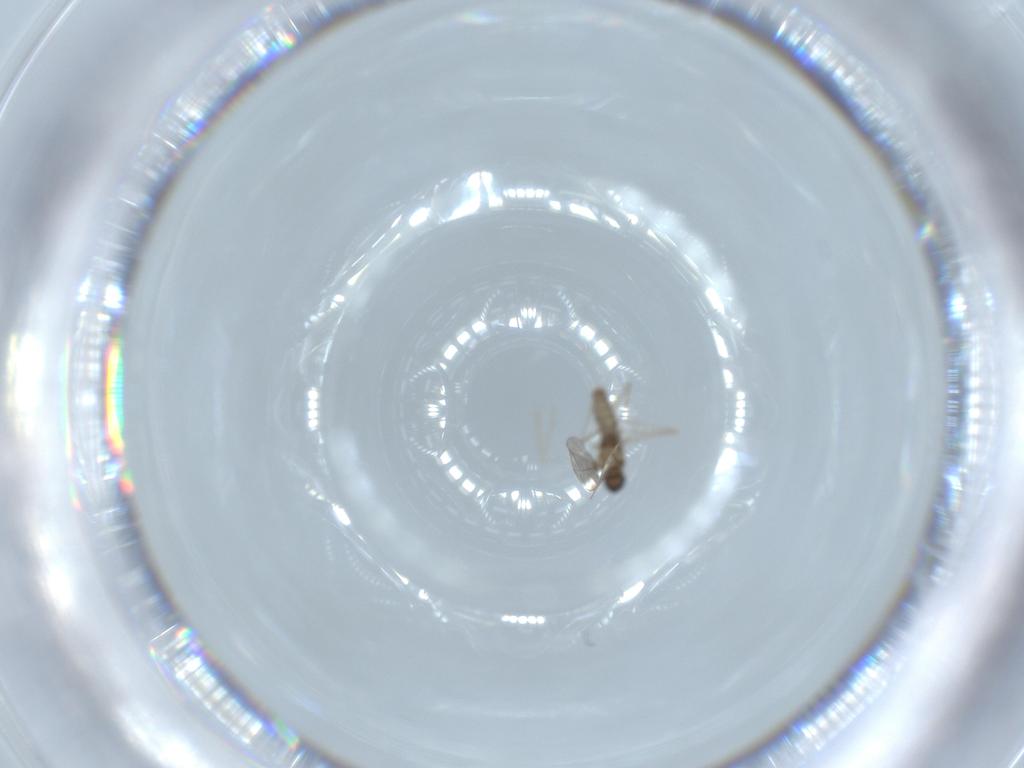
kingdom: Animalia
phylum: Arthropoda
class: Insecta
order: Diptera
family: Cecidomyiidae
